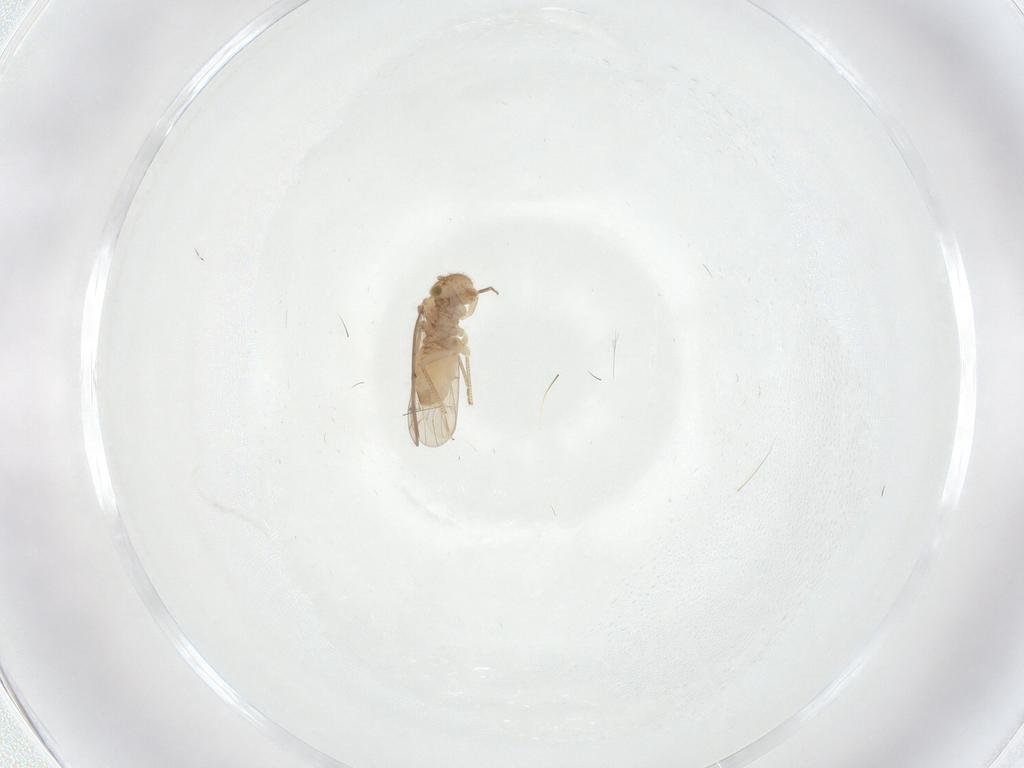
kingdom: Animalia
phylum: Arthropoda
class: Insecta
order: Psocodea
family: Ectopsocidae
